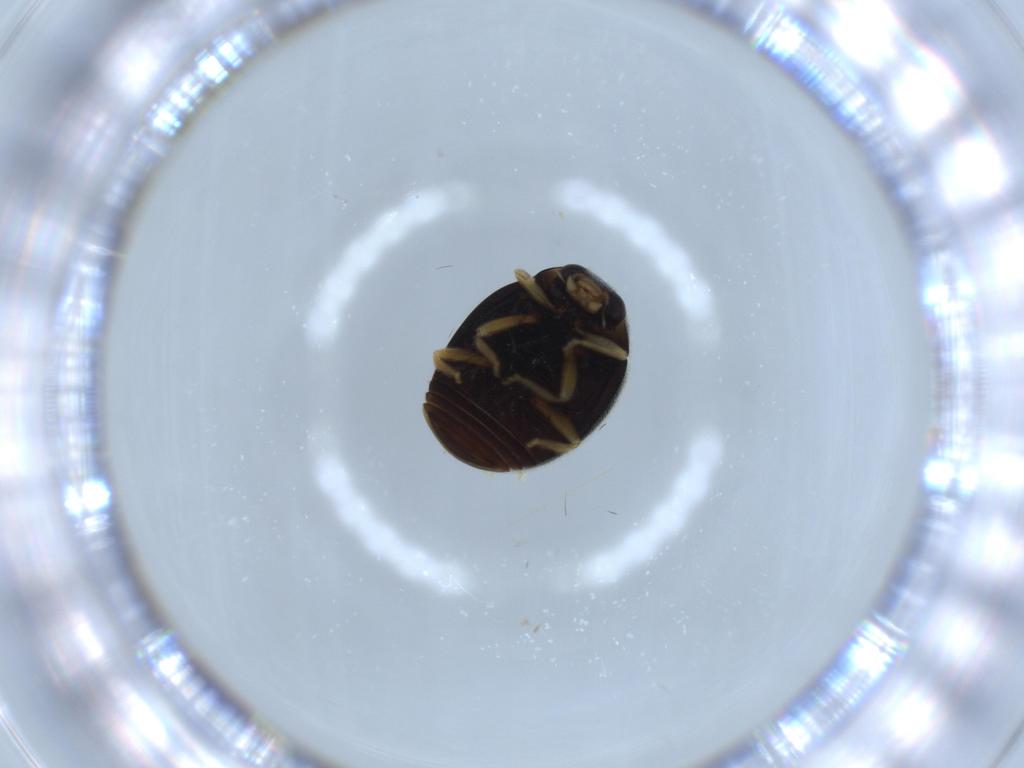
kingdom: Animalia
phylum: Arthropoda
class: Insecta
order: Coleoptera
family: Coccinellidae
